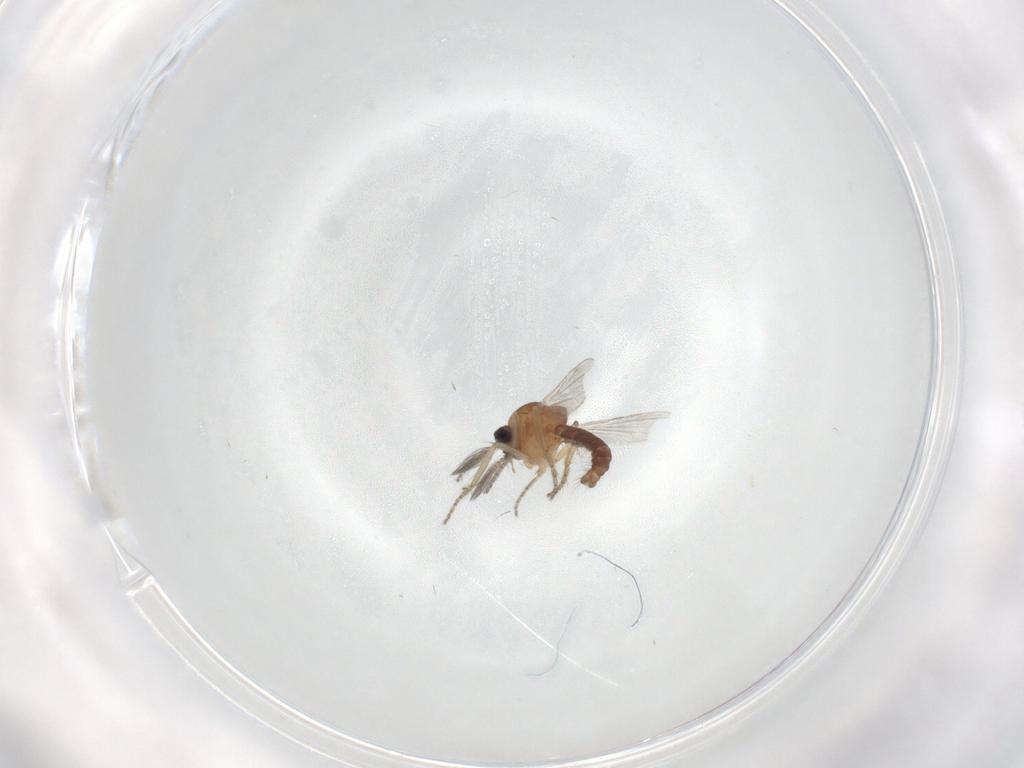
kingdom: Animalia
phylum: Arthropoda
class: Insecta
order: Diptera
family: Ceratopogonidae
